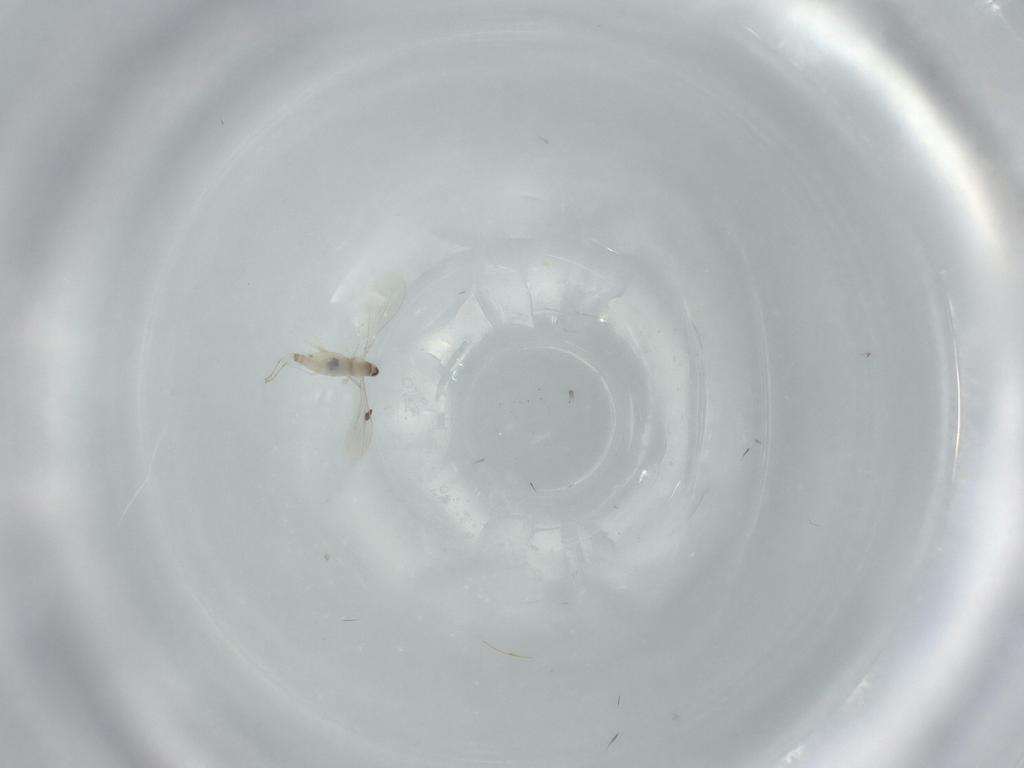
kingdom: Animalia
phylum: Arthropoda
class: Insecta
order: Diptera
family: Cecidomyiidae
